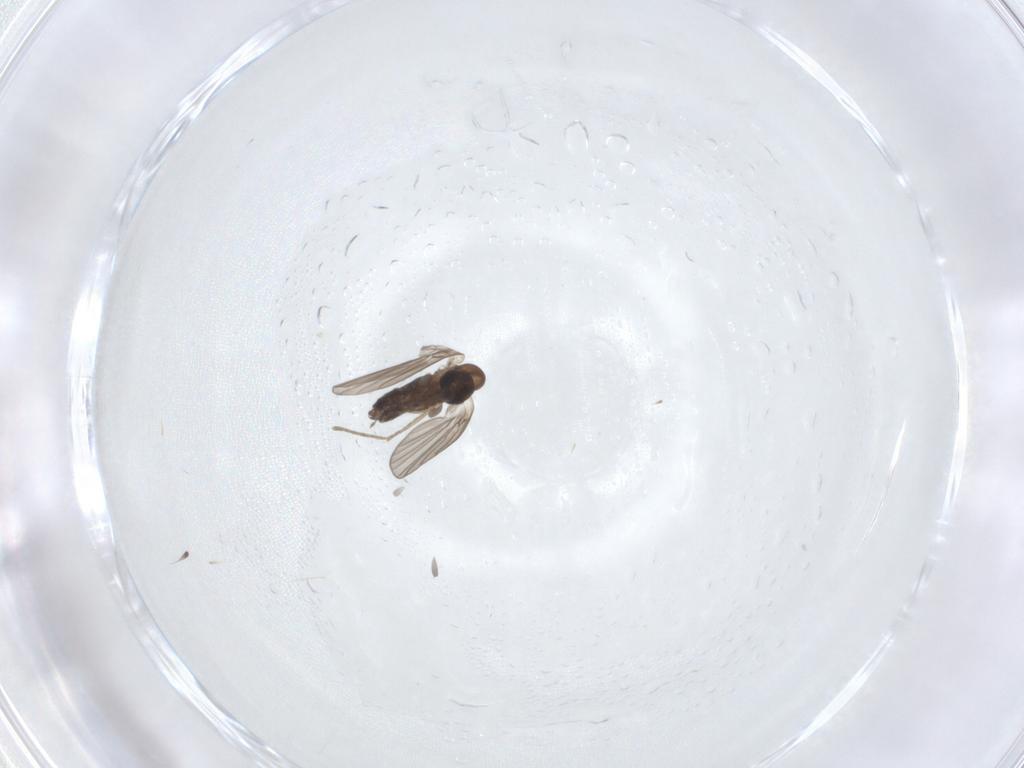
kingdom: Animalia
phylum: Arthropoda
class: Insecta
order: Diptera
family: Limoniidae
